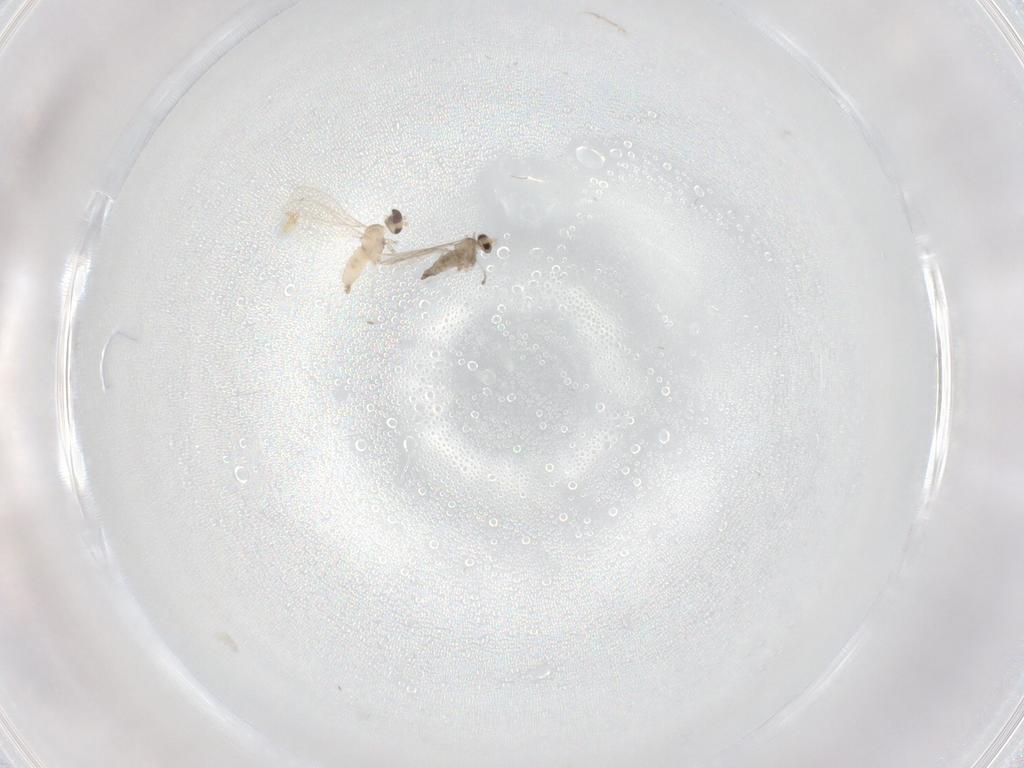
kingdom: Animalia
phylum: Arthropoda
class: Insecta
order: Diptera
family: Cecidomyiidae
